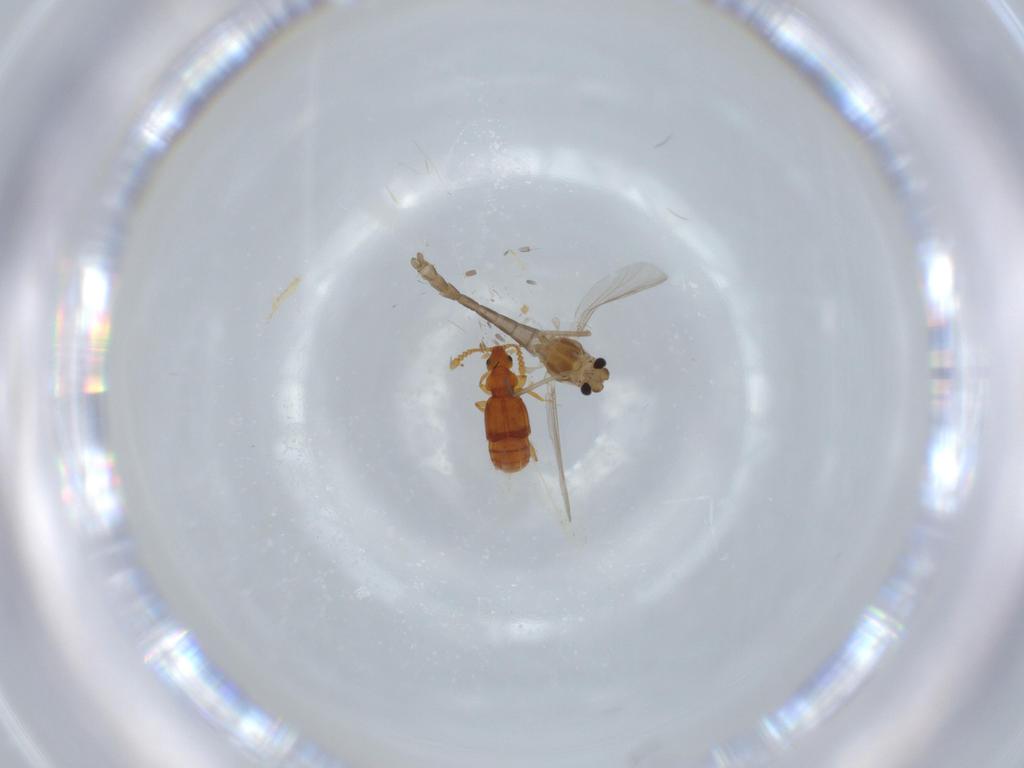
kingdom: Animalia
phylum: Arthropoda
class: Insecta
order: Diptera
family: Chironomidae
